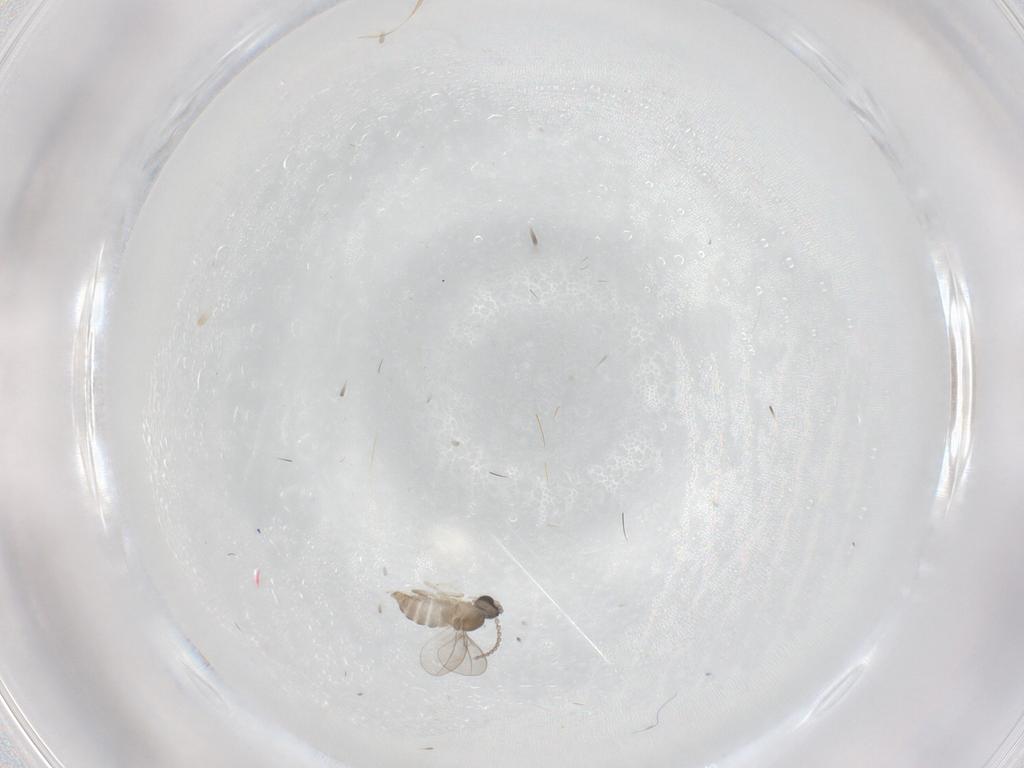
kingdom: Animalia
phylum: Arthropoda
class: Insecta
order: Diptera
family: Cecidomyiidae
